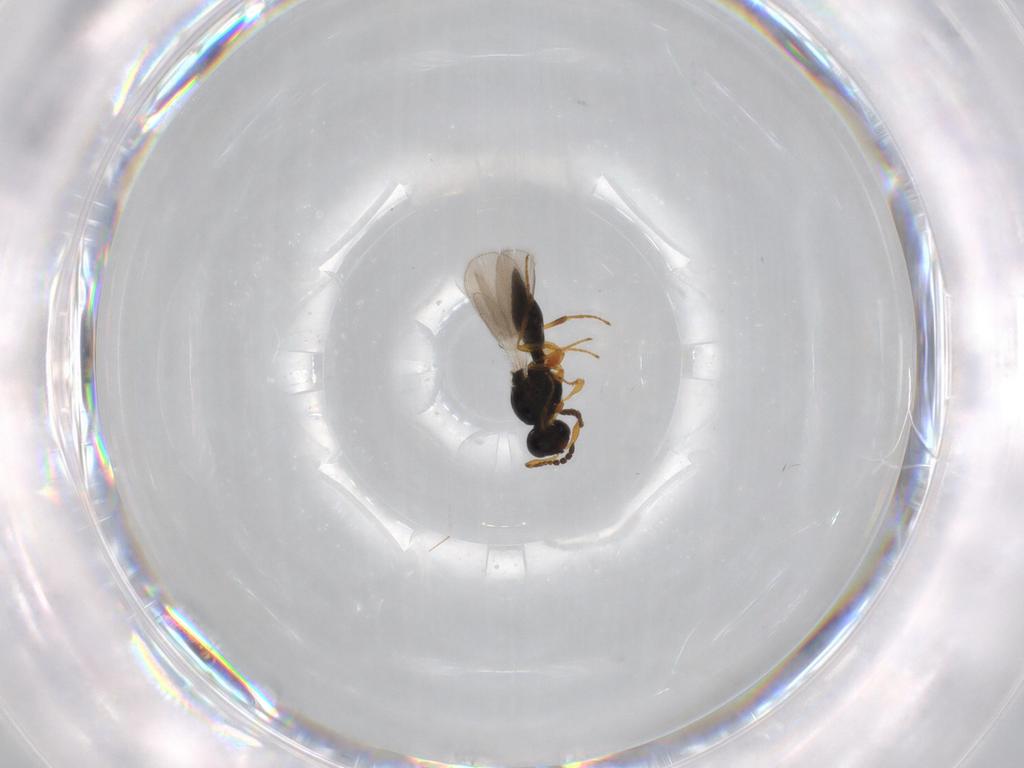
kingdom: Animalia
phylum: Arthropoda
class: Insecta
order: Hymenoptera
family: Platygastridae
